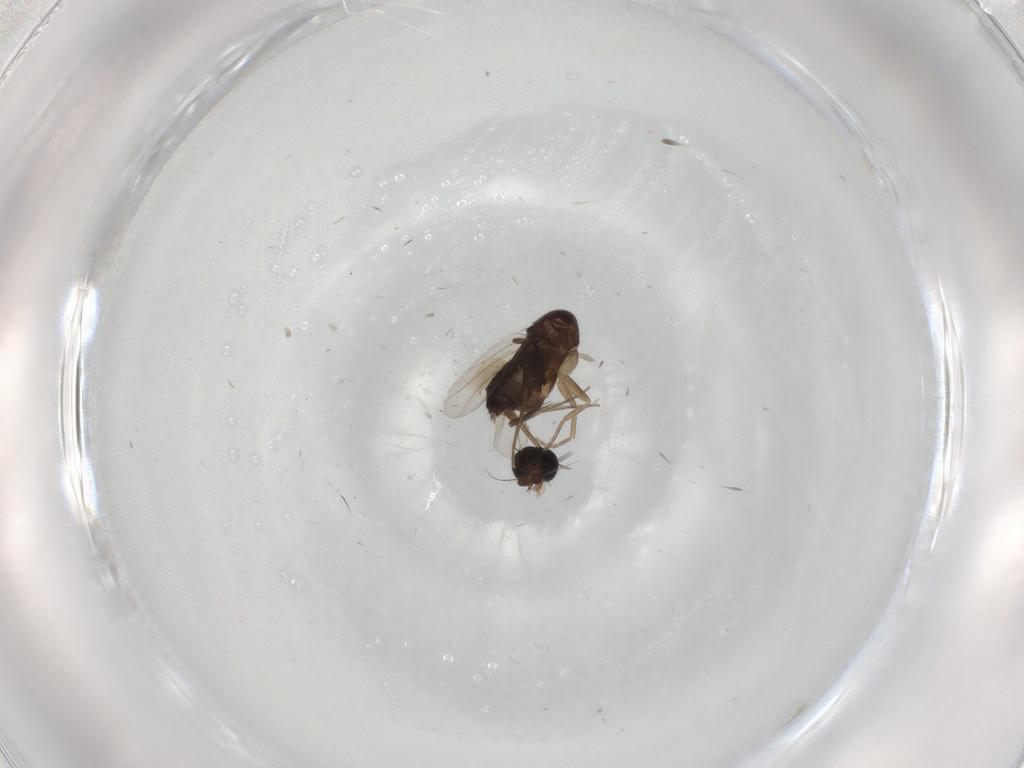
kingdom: Animalia
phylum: Arthropoda
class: Insecta
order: Diptera
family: Phoridae
